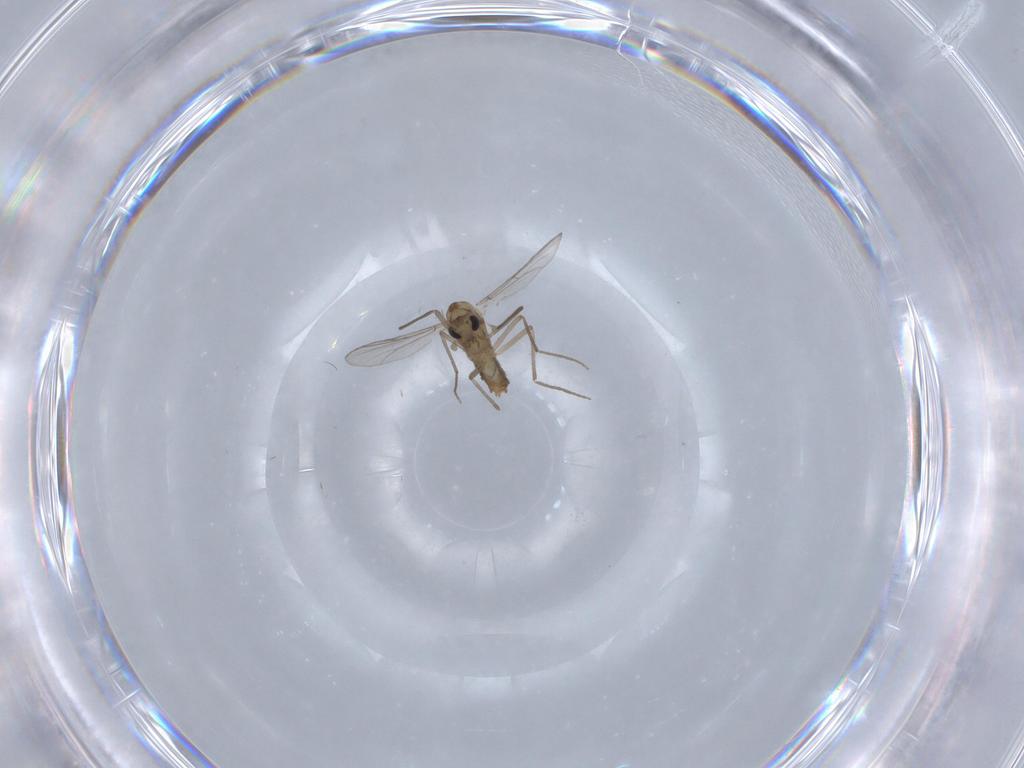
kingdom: Animalia
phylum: Arthropoda
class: Insecta
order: Diptera
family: Chironomidae
